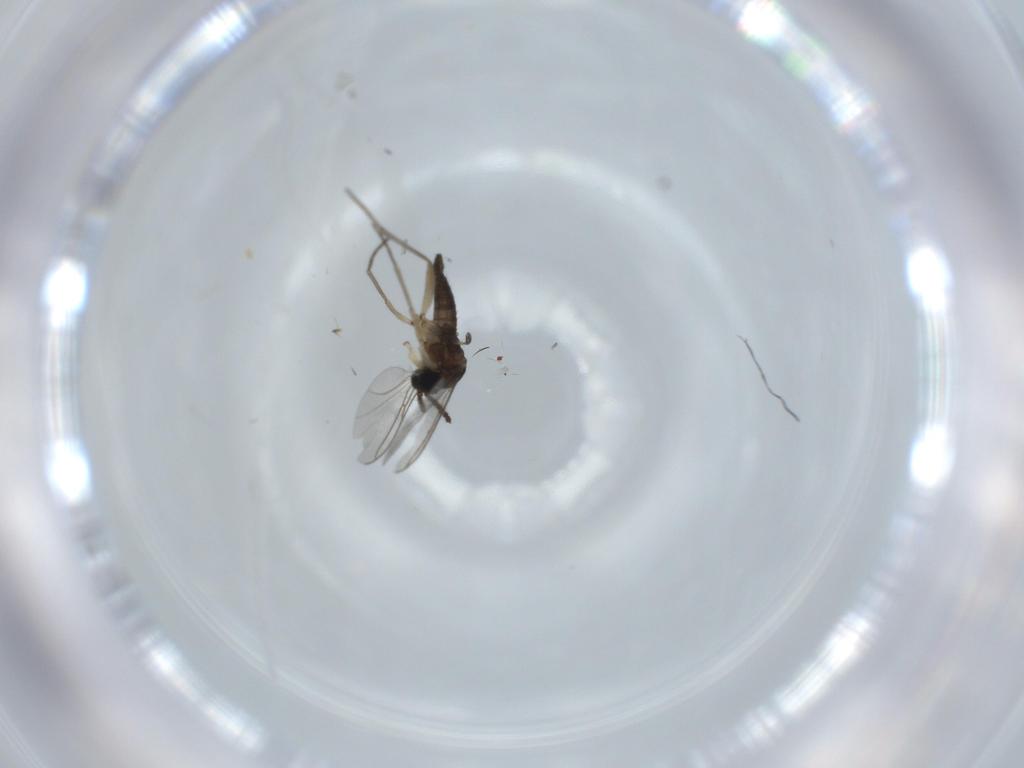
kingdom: Animalia
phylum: Arthropoda
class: Insecta
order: Diptera
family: Sciaridae
